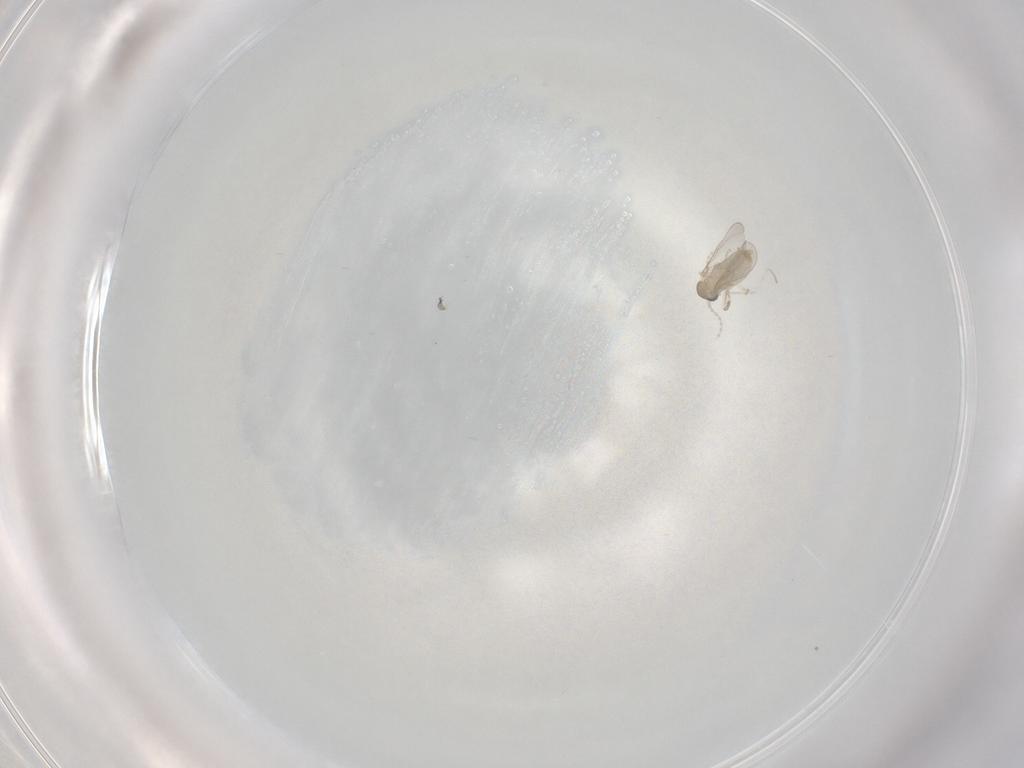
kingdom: Animalia
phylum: Arthropoda
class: Insecta
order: Diptera
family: Cecidomyiidae
